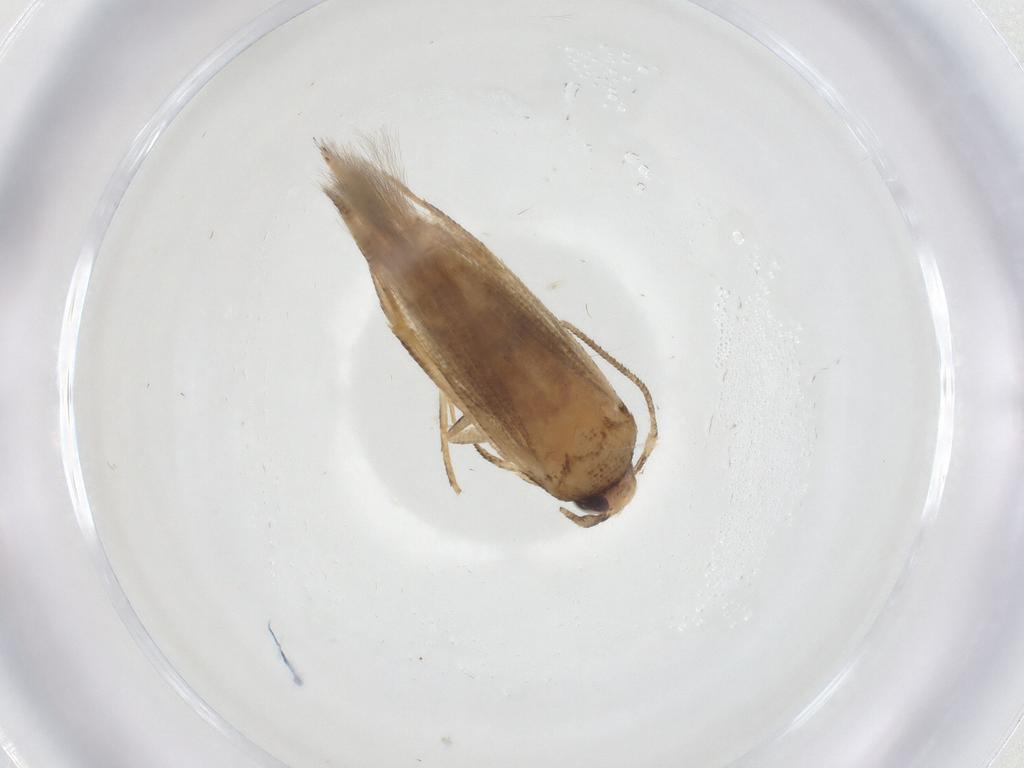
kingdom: Animalia
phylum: Arthropoda
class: Insecta
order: Lepidoptera
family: Cosmopterigidae
